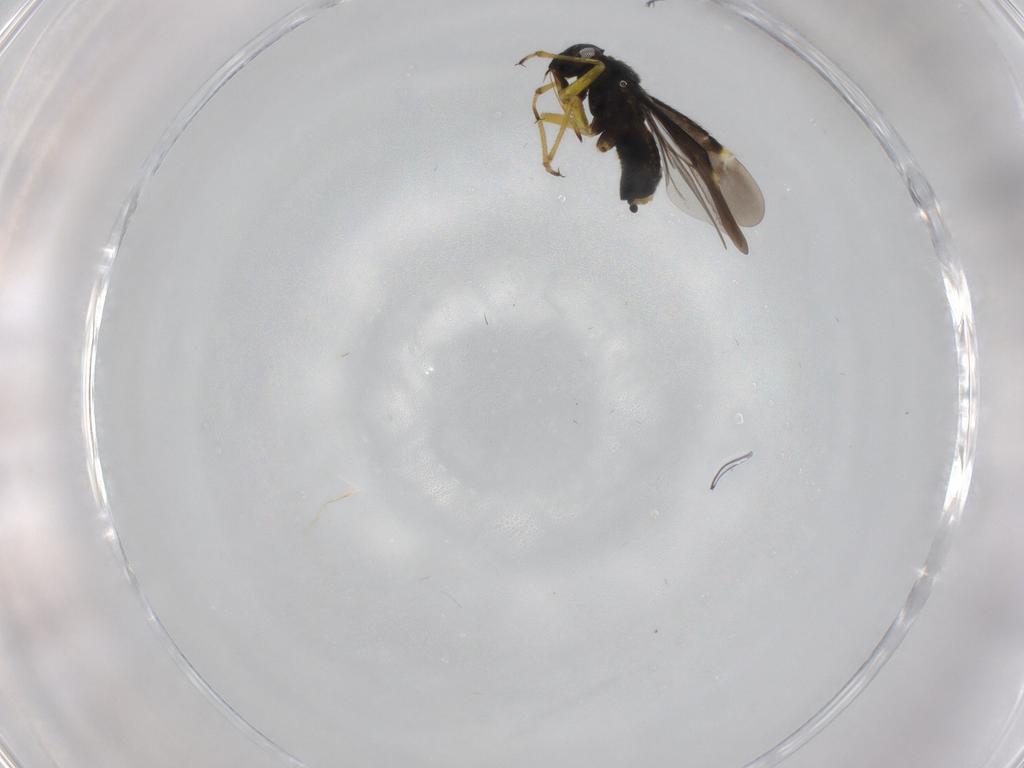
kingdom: Animalia
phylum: Arthropoda
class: Insecta
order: Hemiptera
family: Miridae
